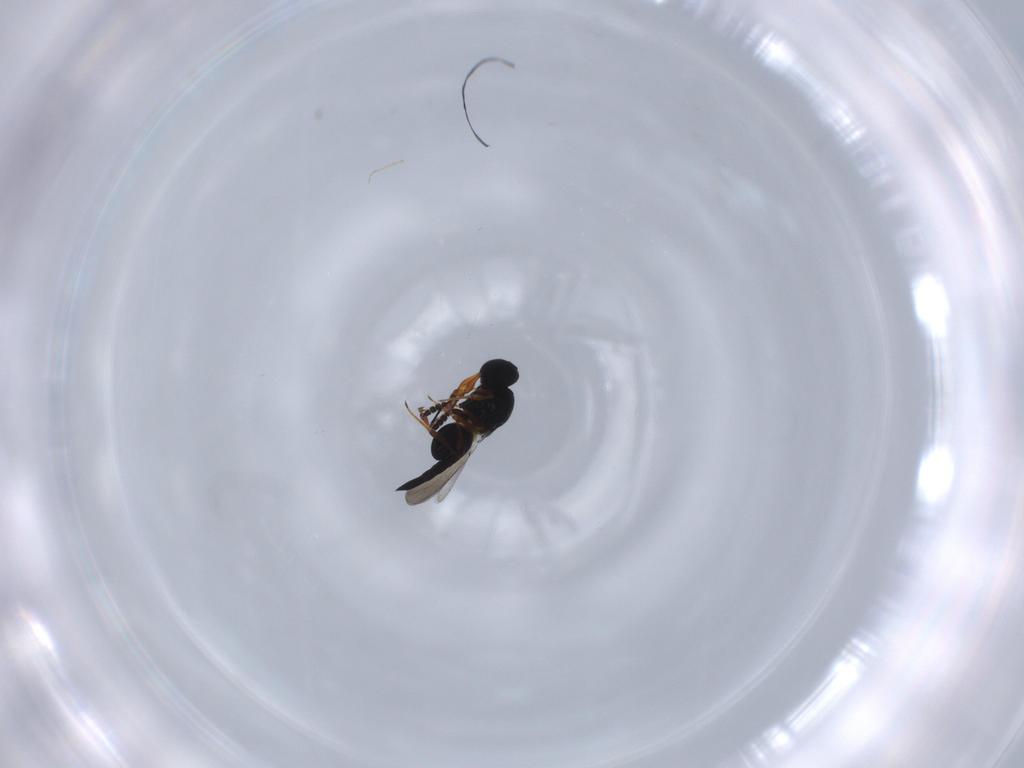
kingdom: Animalia
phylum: Arthropoda
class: Insecta
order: Hymenoptera
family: Platygastridae
